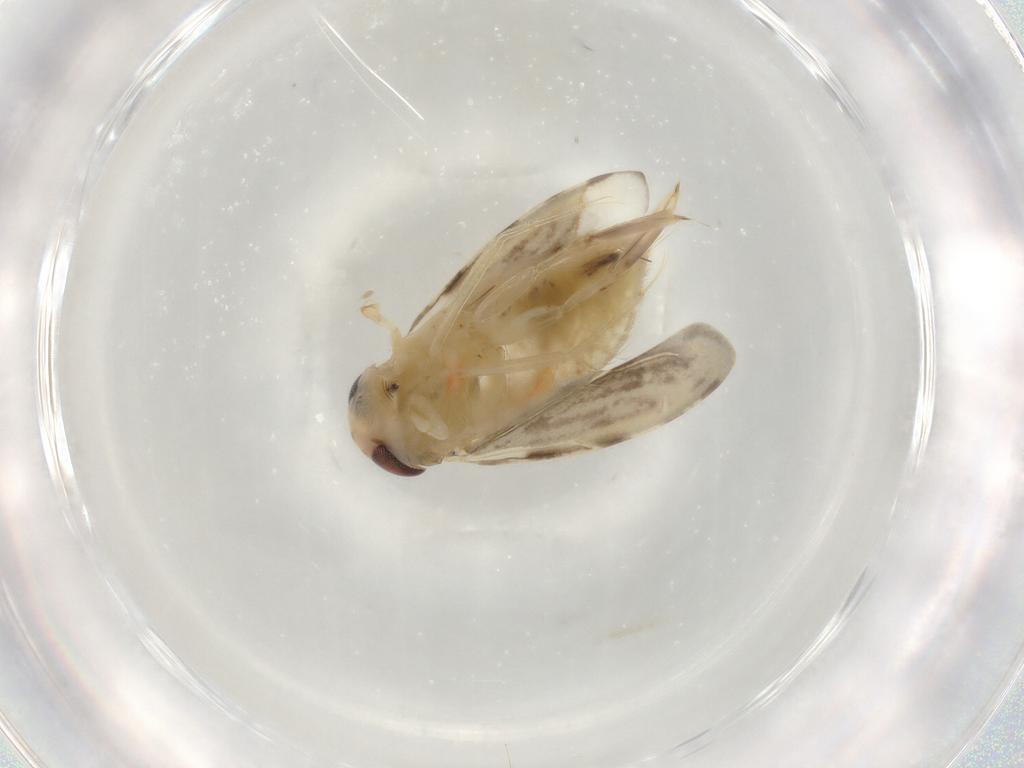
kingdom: Animalia
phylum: Arthropoda
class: Insecta
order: Hemiptera
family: Corixidae
